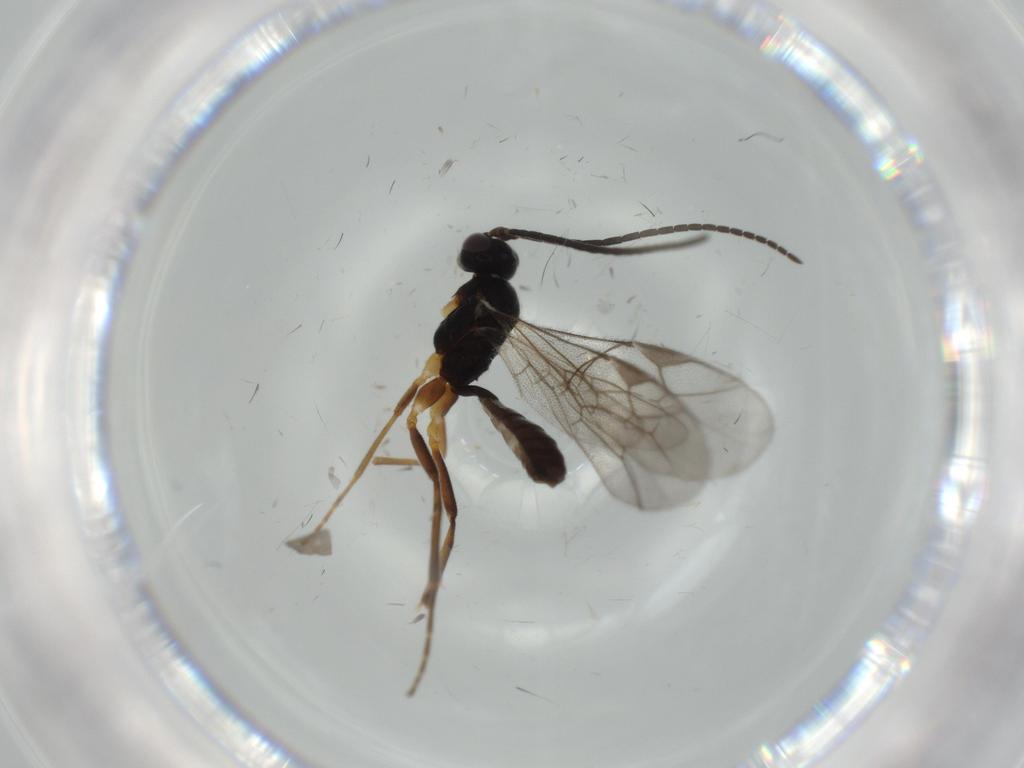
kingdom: Animalia
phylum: Arthropoda
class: Insecta
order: Hymenoptera
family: Ichneumonidae
